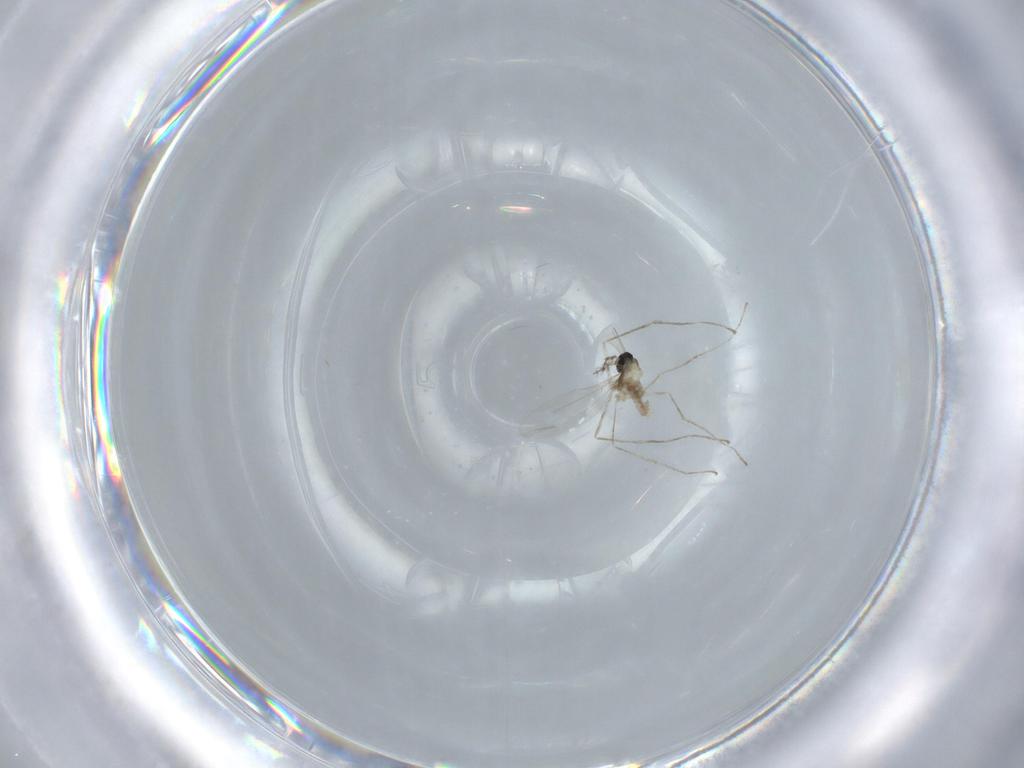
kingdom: Animalia
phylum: Arthropoda
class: Insecta
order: Diptera
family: Cecidomyiidae
